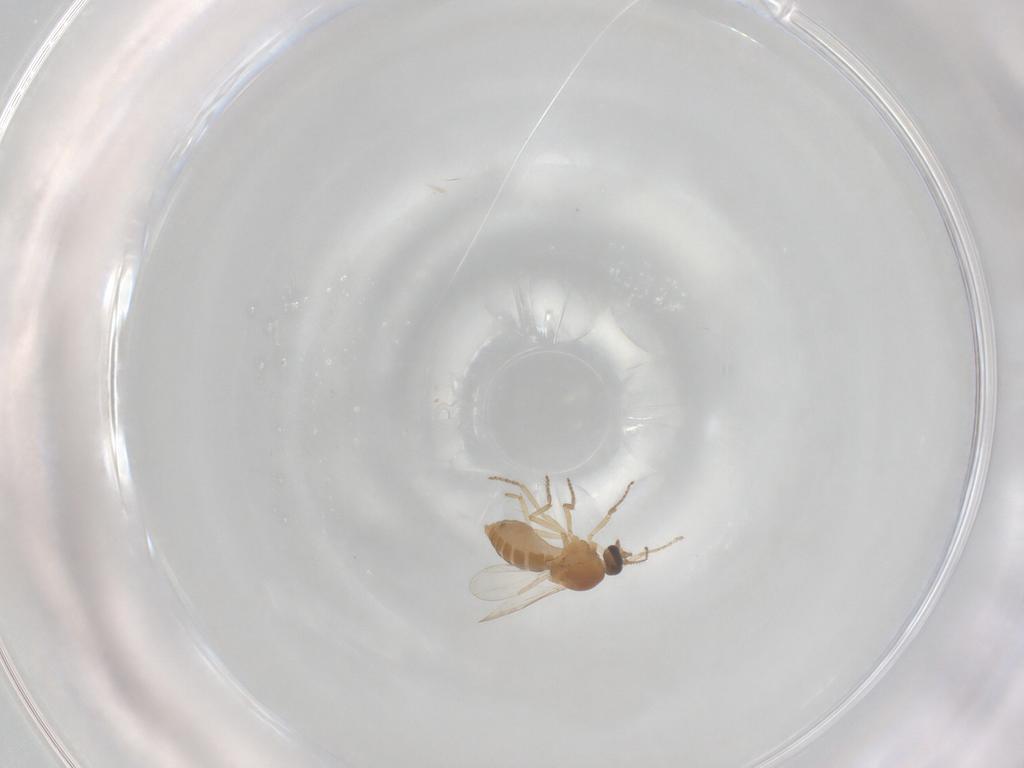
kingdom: Animalia
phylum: Arthropoda
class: Insecta
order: Diptera
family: Ceratopogonidae
